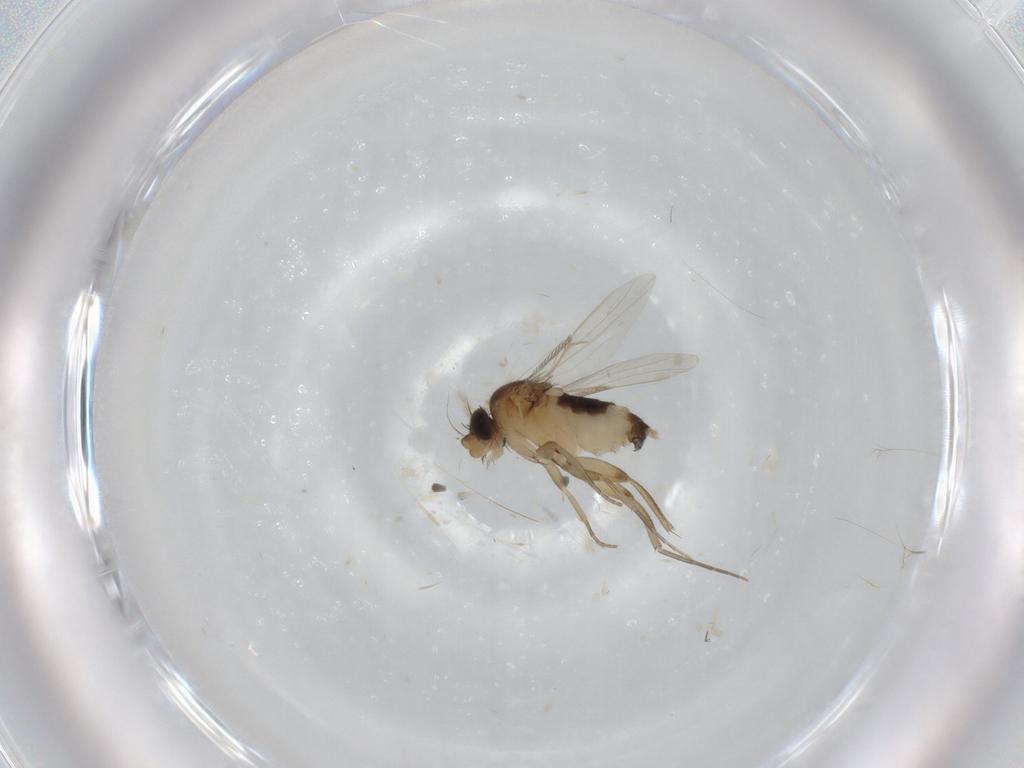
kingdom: Animalia
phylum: Arthropoda
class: Insecta
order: Diptera
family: Phoridae
